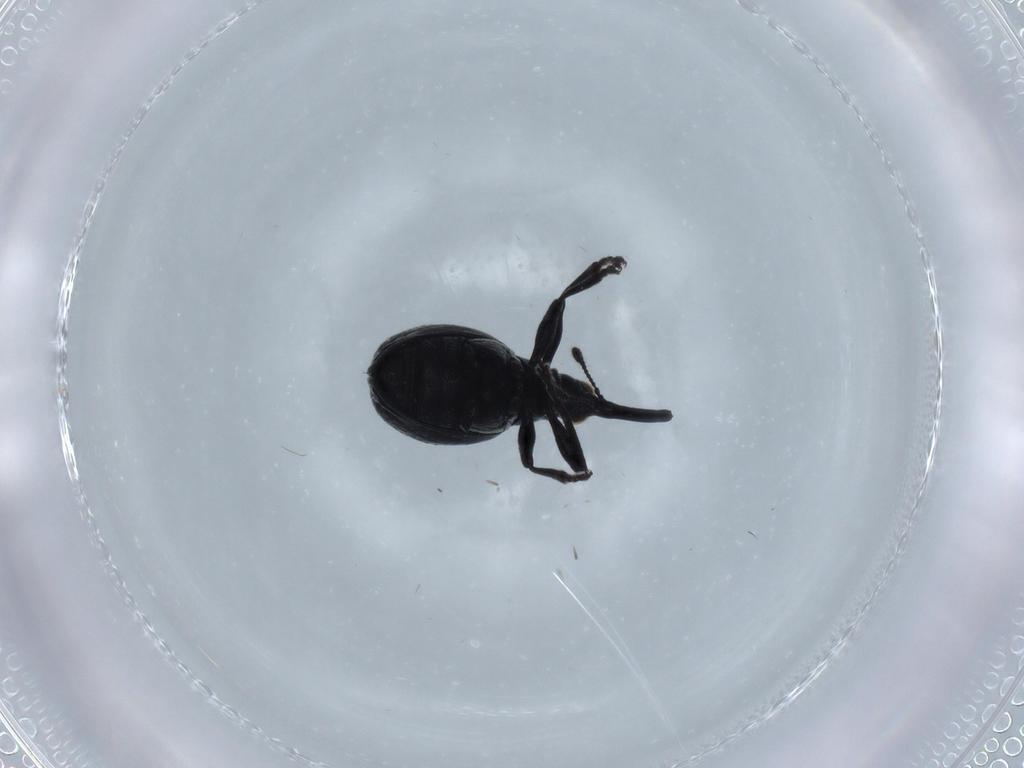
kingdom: Animalia
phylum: Arthropoda
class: Insecta
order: Coleoptera
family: Brentidae
